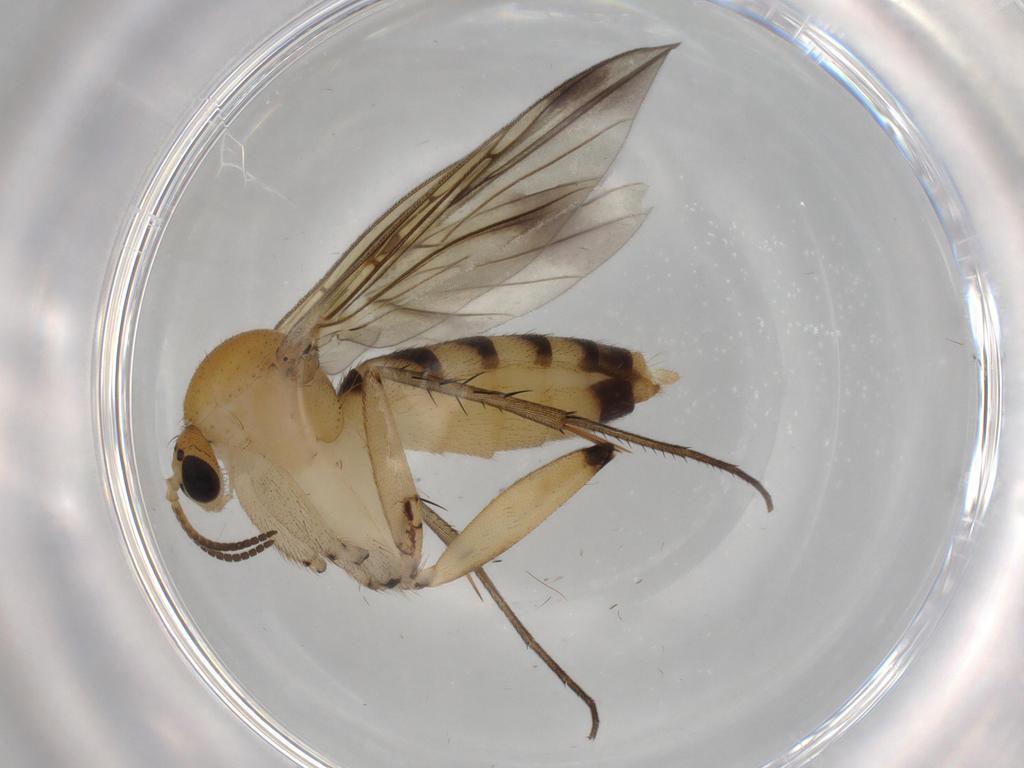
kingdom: Animalia
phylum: Arthropoda
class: Insecta
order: Diptera
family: Mycetophilidae
